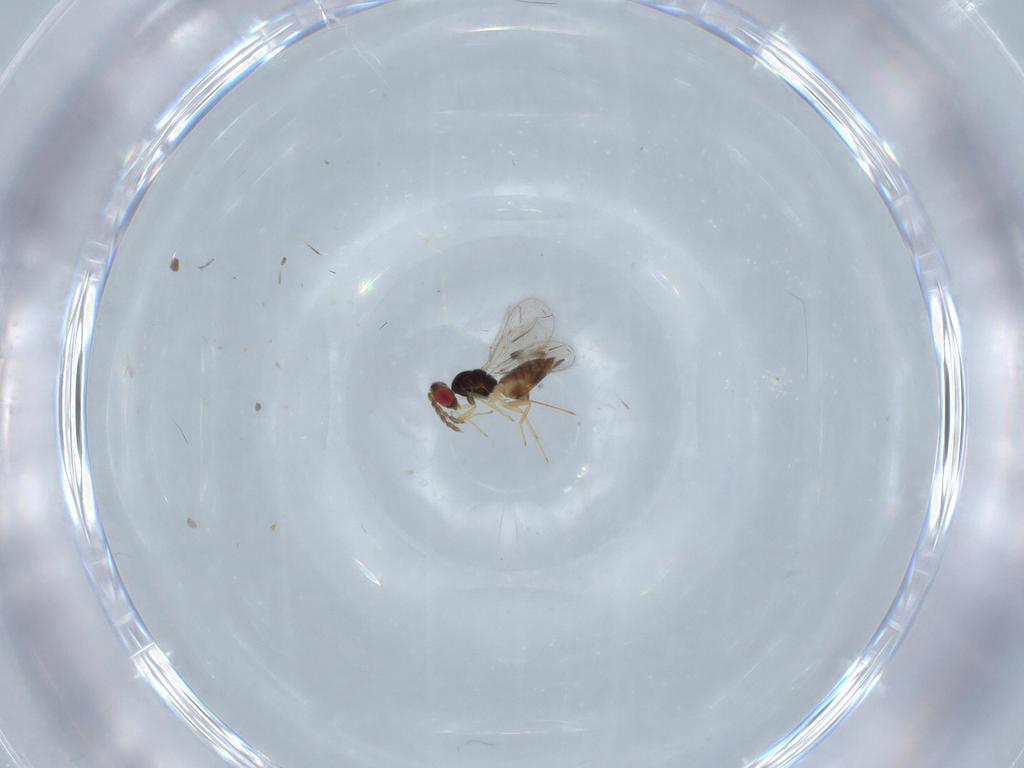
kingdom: Animalia
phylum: Arthropoda
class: Insecta
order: Hymenoptera
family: Eulophidae
